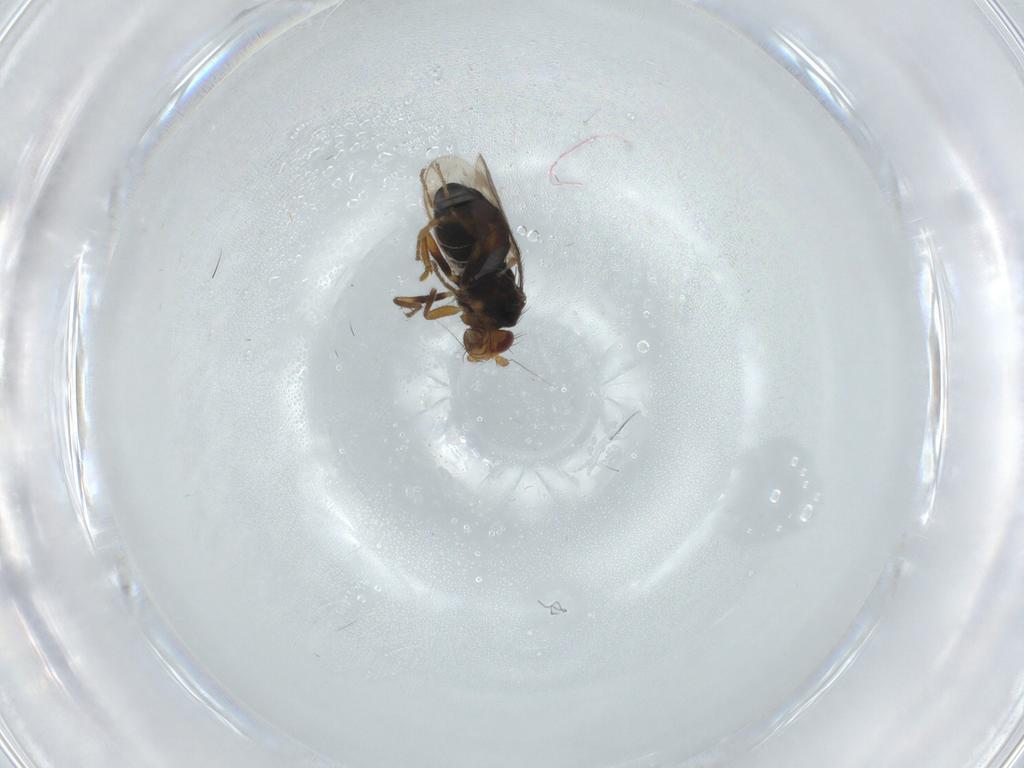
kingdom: Animalia
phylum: Arthropoda
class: Insecta
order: Diptera
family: Sphaeroceridae
